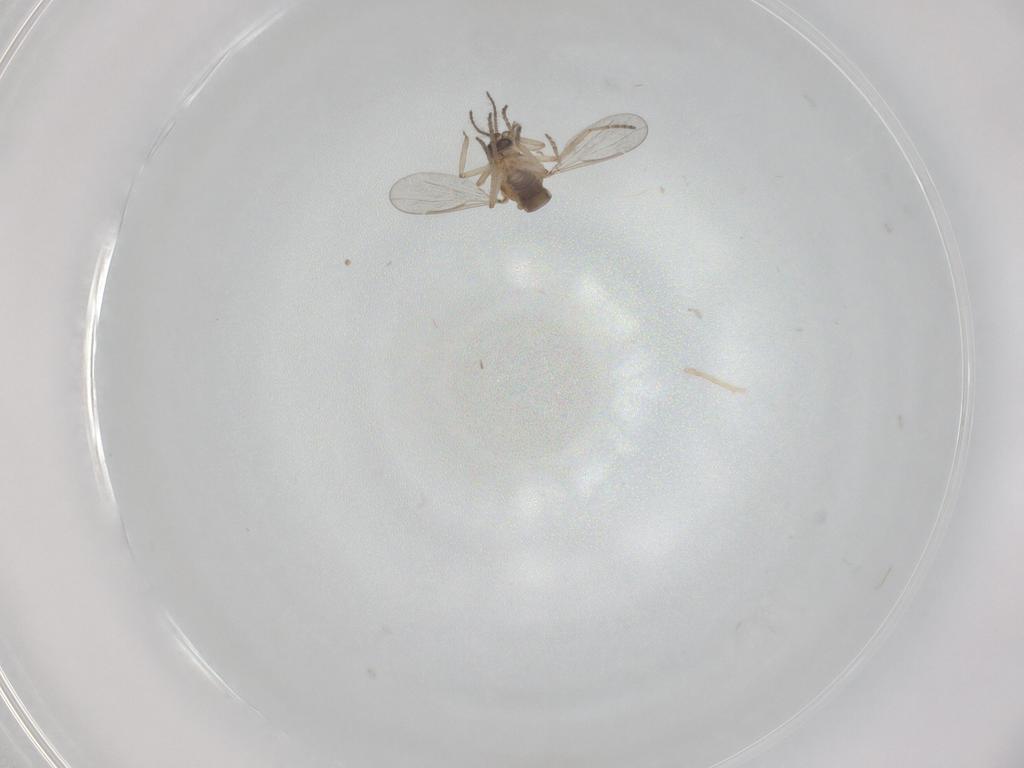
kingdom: Animalia
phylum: Arthropoda
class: Insecta
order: Diptera
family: Ceratopogonidae
